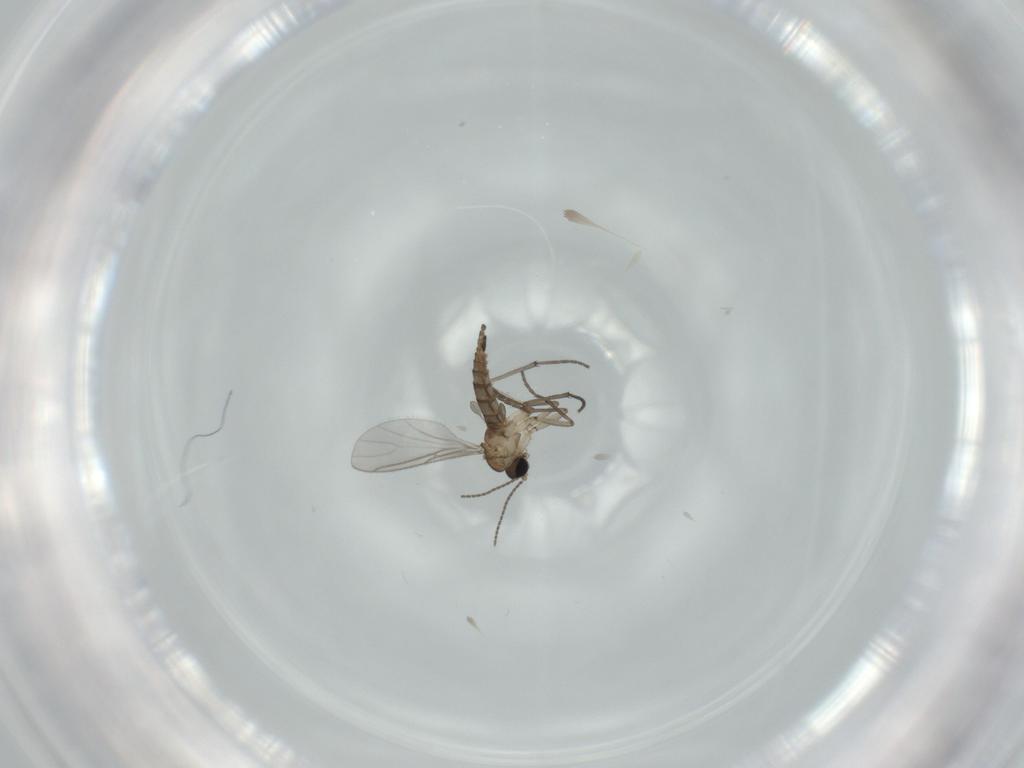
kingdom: Animalia
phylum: Arthropoda
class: Insecta
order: Diptera
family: Sciaridae
